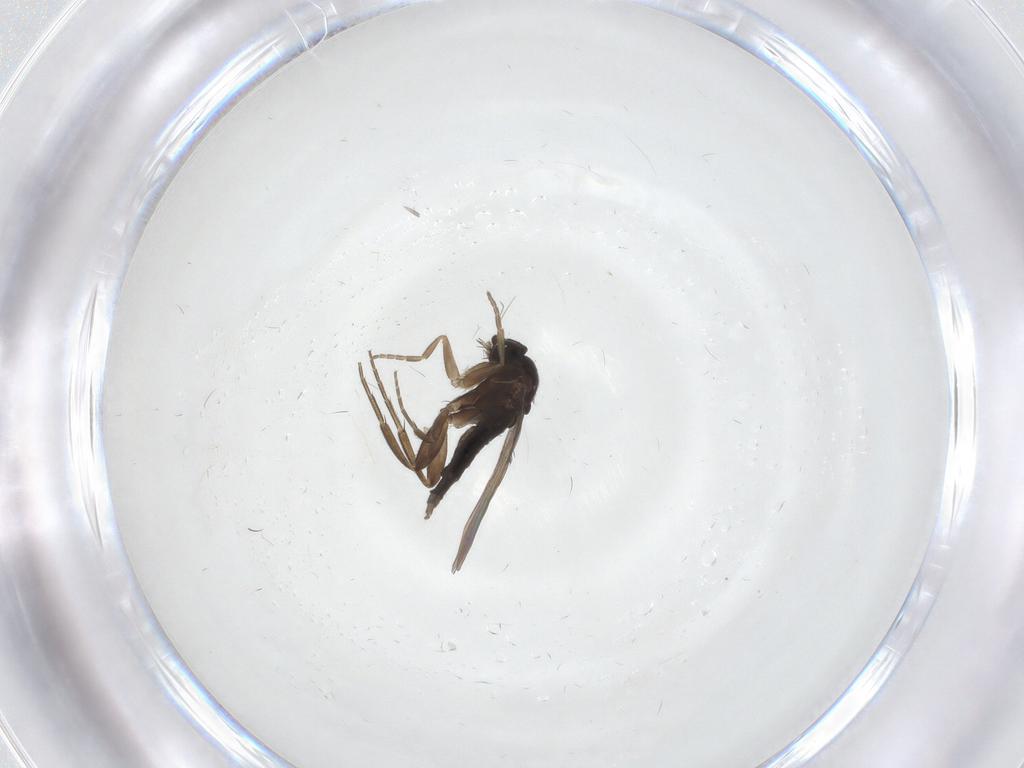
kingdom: Animalia
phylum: Arthropoda
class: Insecta
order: Diptera
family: Phoridae
